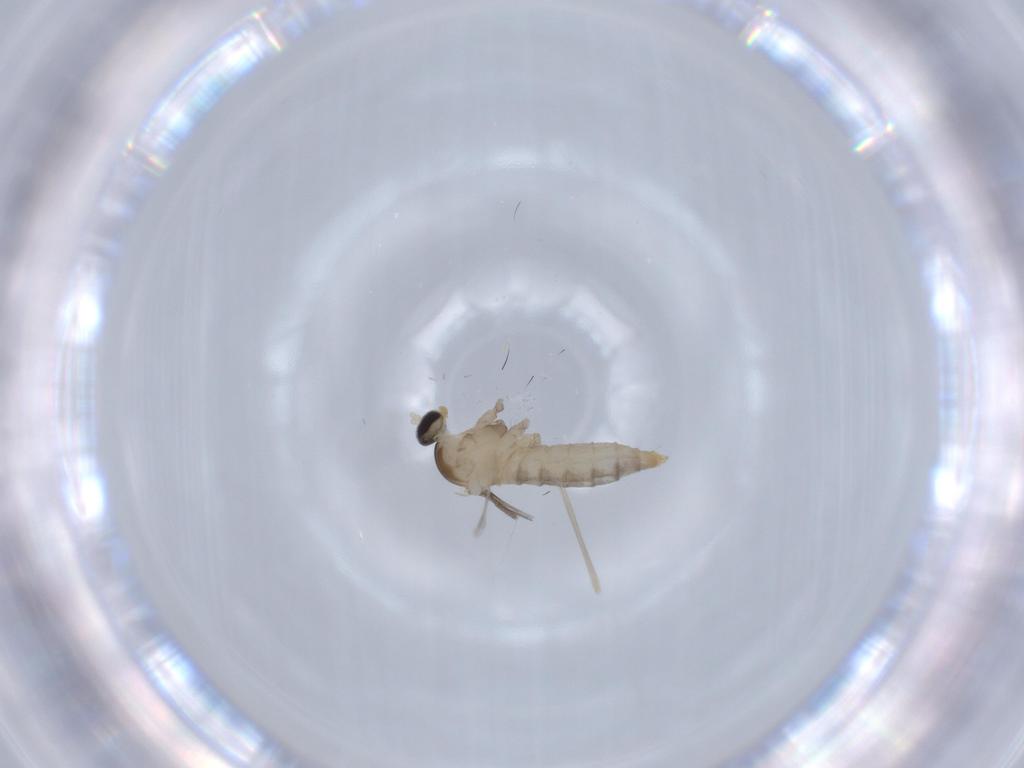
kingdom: Animalia
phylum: Arthropoda
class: Insecta
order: Diptera
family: Cecidomyiidae
